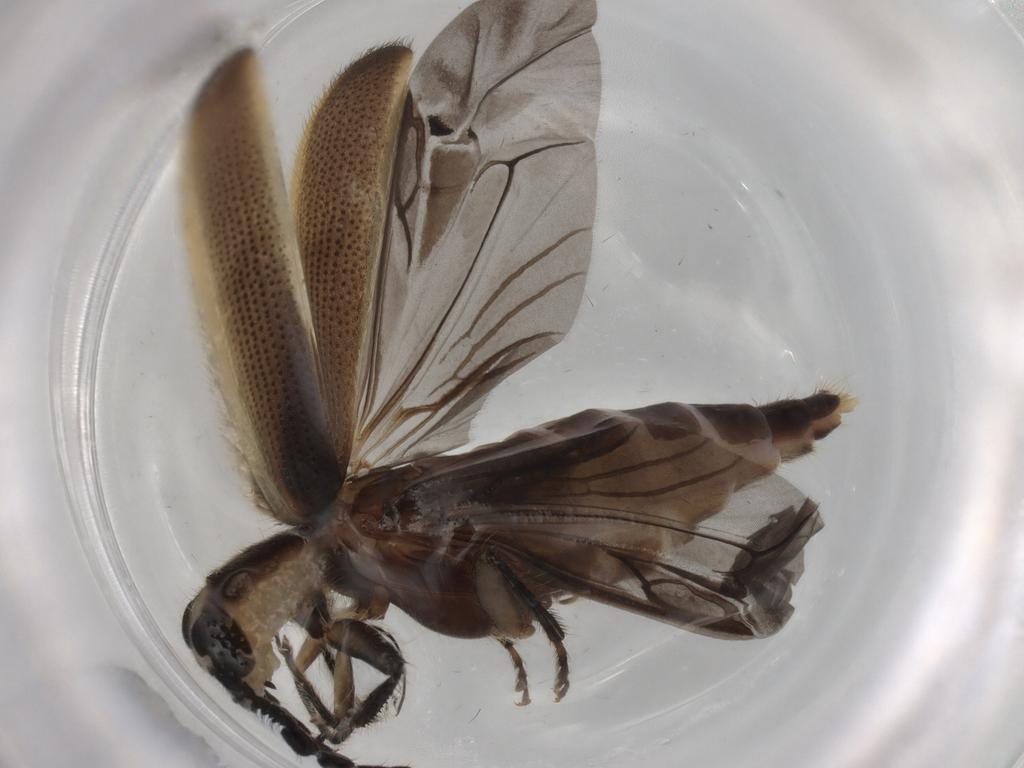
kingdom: Animalia
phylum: Arthropoda
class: Insecta
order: Coleoptera
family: Cleridae
